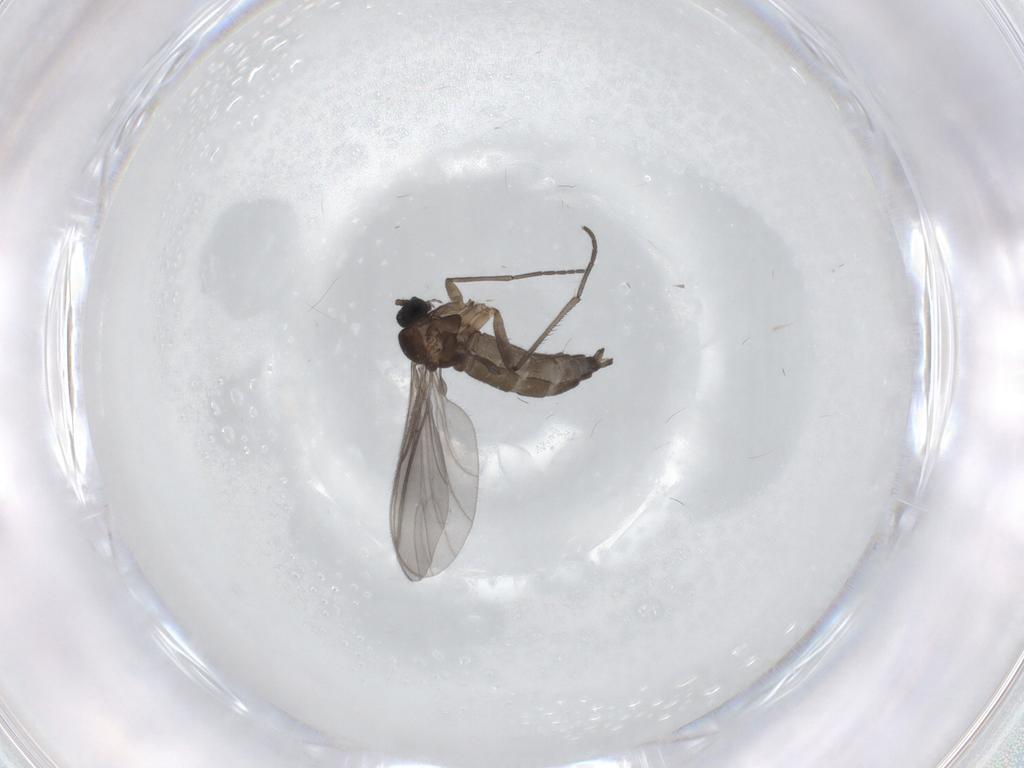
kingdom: Animalia
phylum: Arthropoda
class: Insecta
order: Diptera
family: Sciaridae
